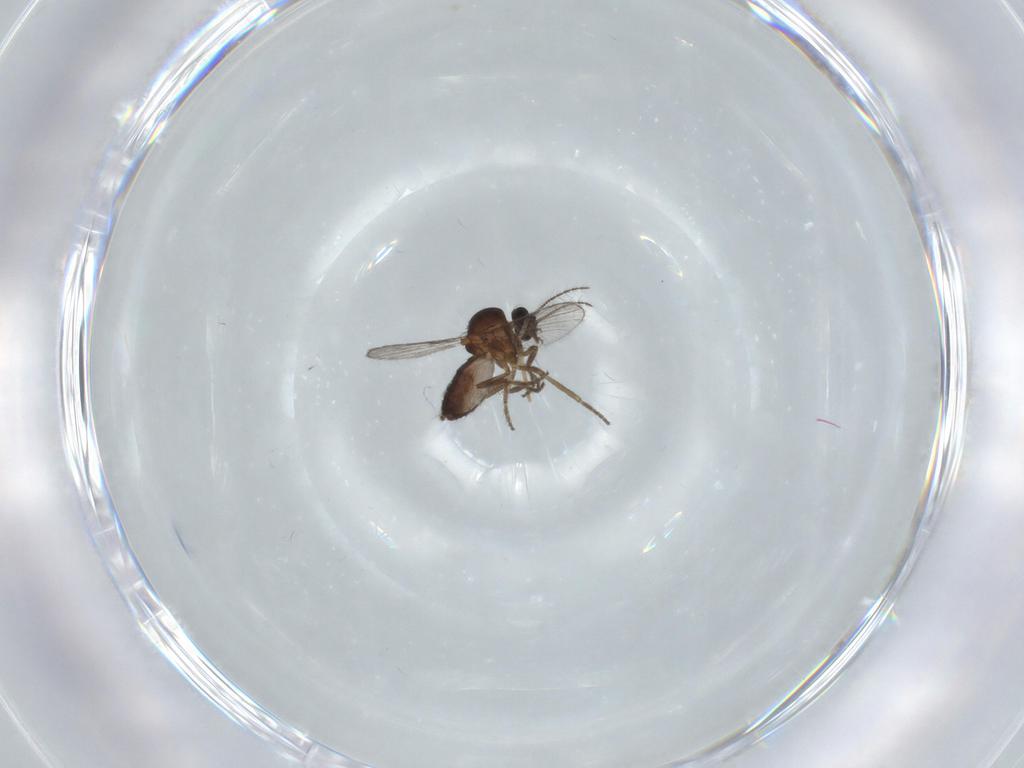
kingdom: Animalia
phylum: Arthropoda
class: Insecta
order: Diptera
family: Chironomidae
